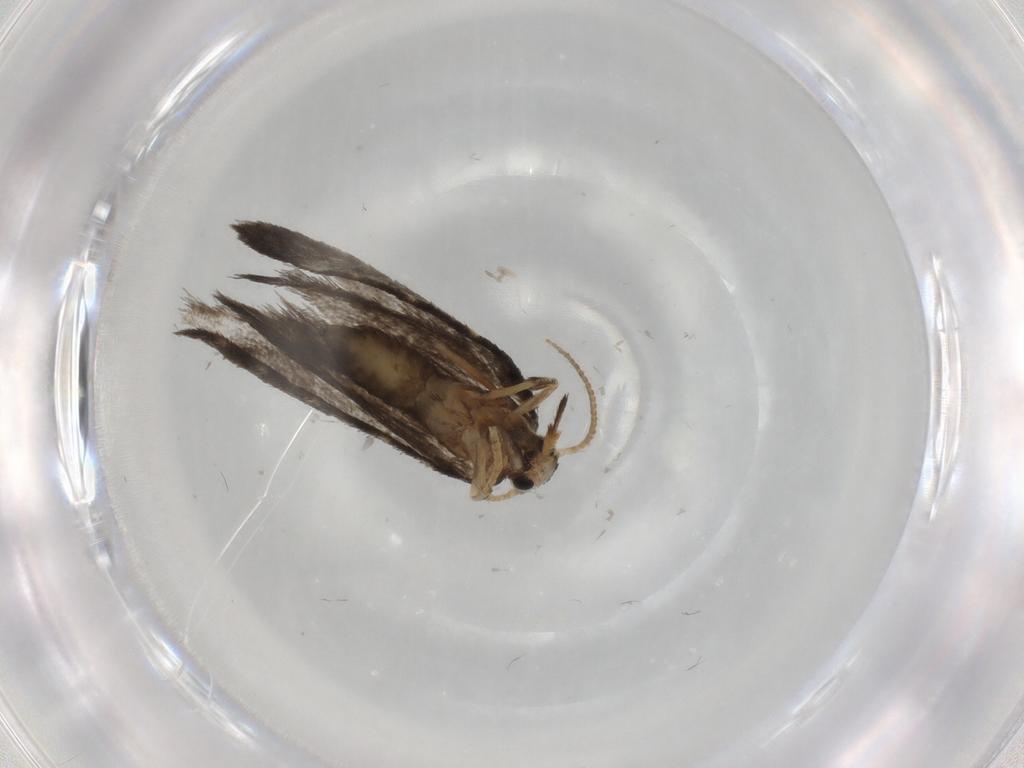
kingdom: Animalia
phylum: Arthropoda
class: Insecta
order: Lepidoptera
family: Psychidae
